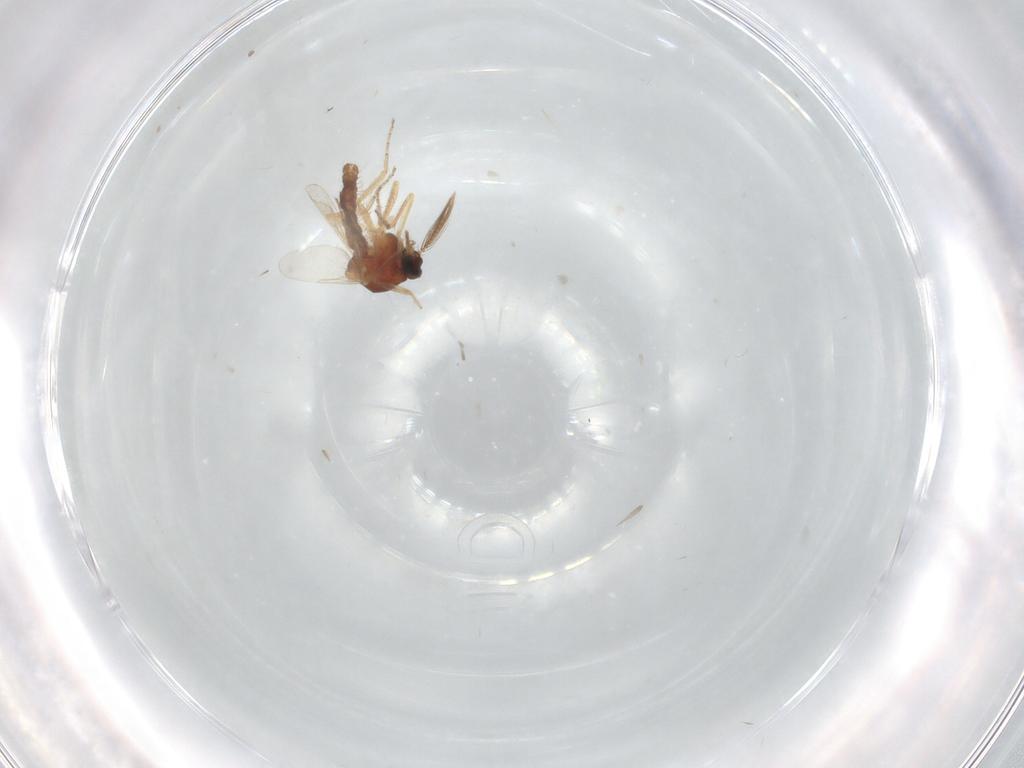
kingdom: Animalia
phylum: Arthropoda
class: Insecta
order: Diptera
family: Ceratopogonidae
